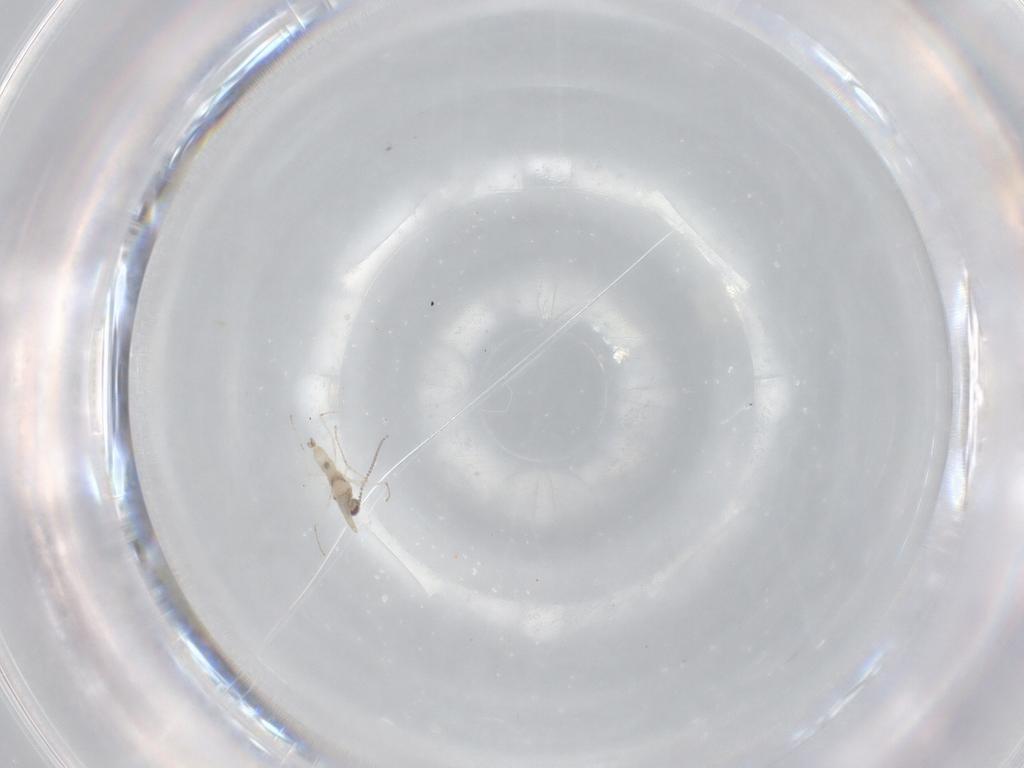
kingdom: Animalia
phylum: Arthropoda
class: Insecta
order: Diptera
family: Cecidomyiidae
